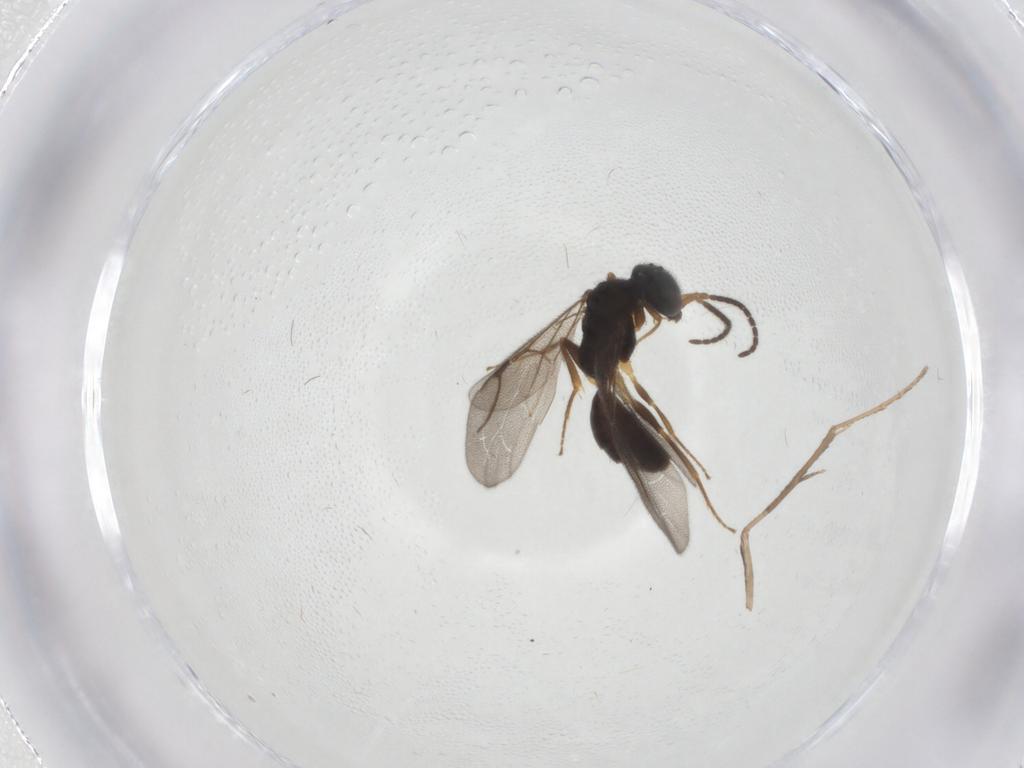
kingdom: Animalia
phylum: Arthropoda
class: Insecta
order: Hymenoptera
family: Bethylidae
